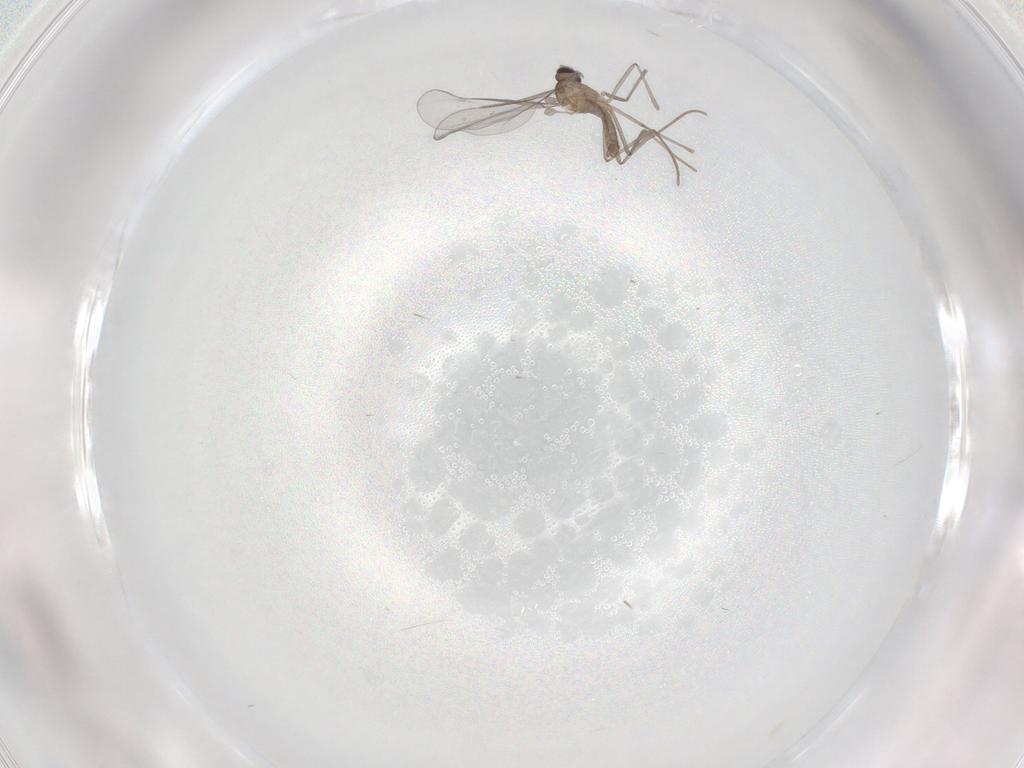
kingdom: Animalia
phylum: Arthropoda
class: Insecta
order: Diptera
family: Cecidomyiidae
